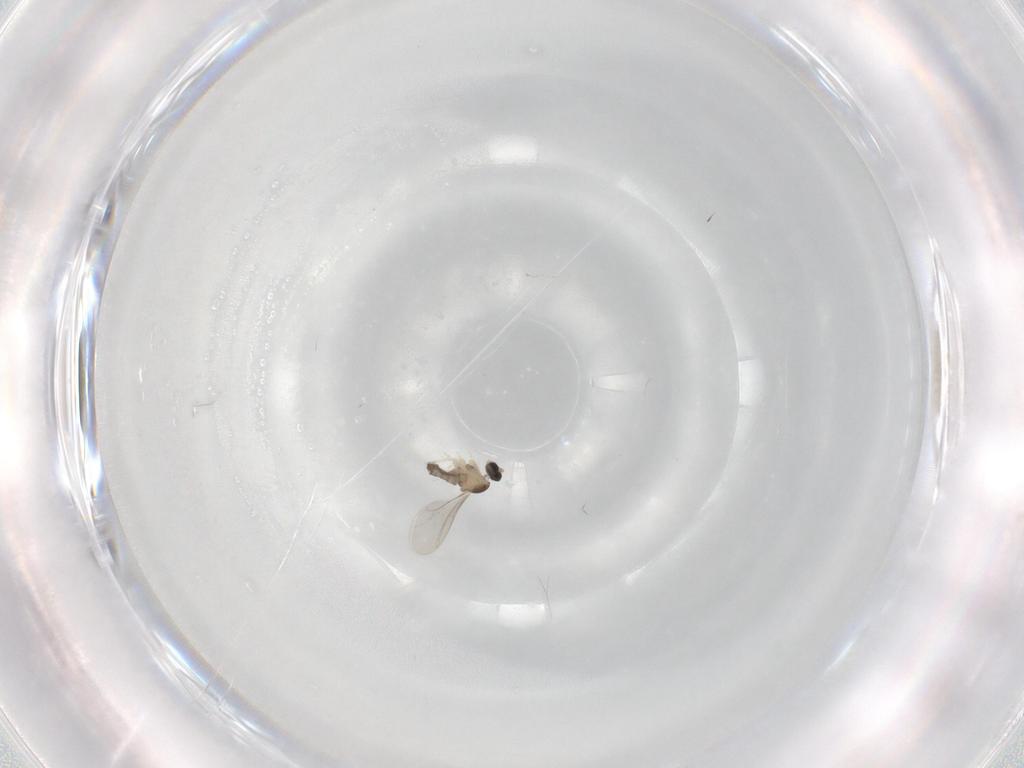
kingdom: Animalia
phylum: Arthropoda
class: Insecta
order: Diptera
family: Cecidomyiidae
